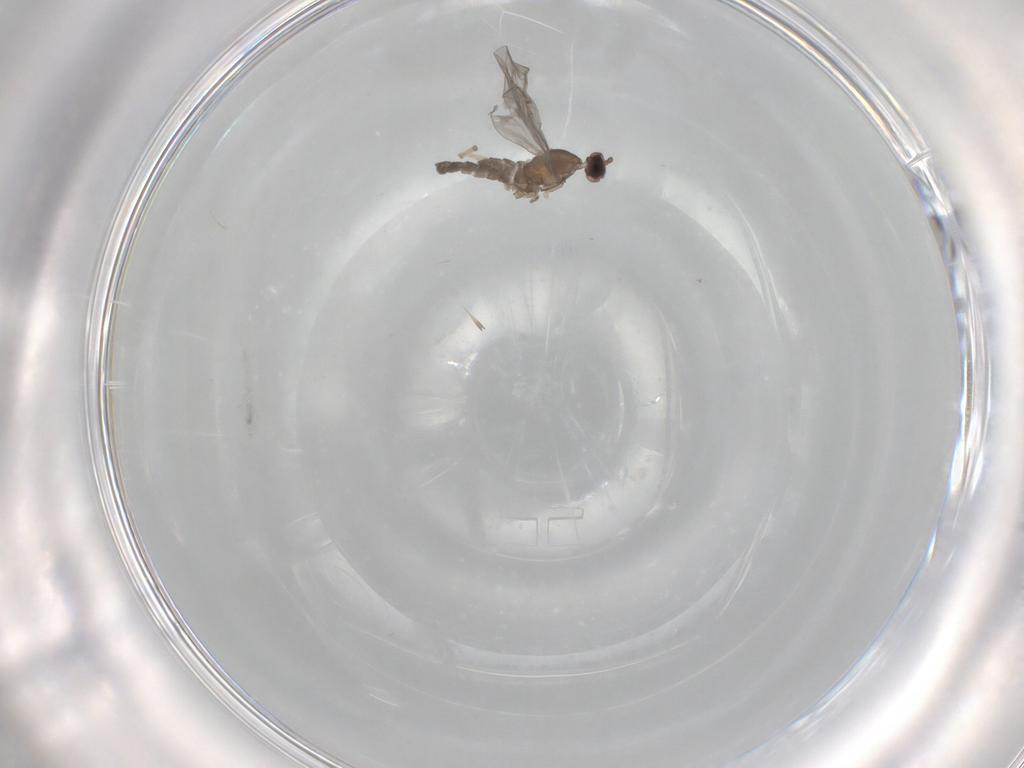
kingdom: Animalia
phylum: Arthropoda
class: Insecta
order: Diptera
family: Cecidomyiidae
